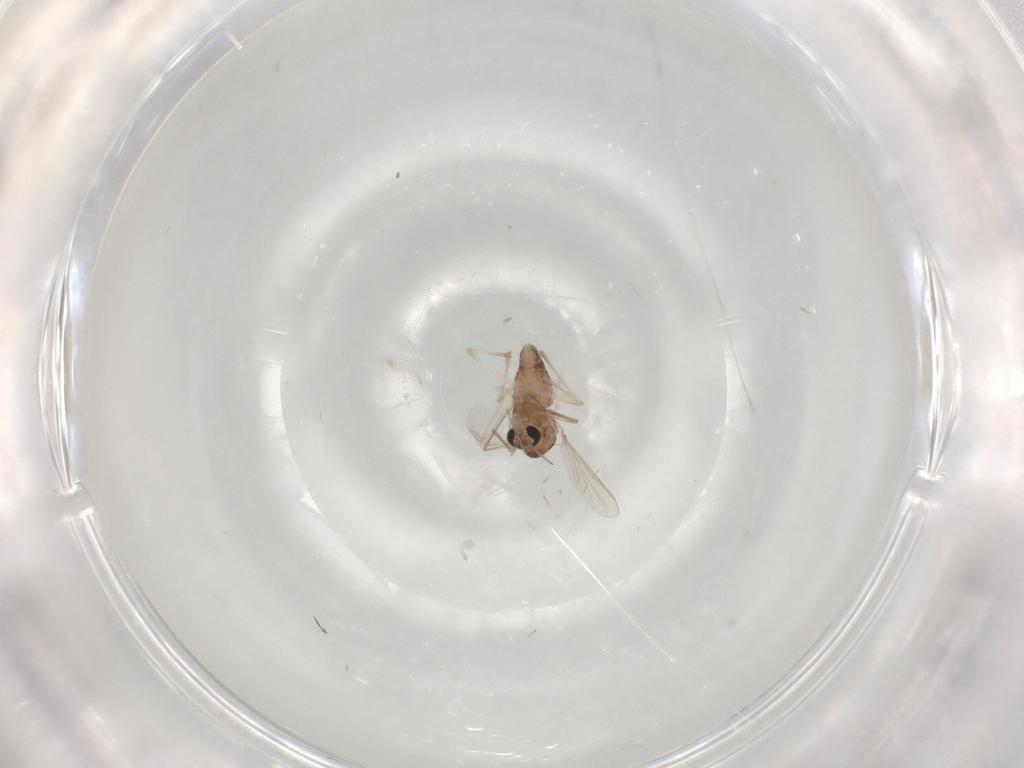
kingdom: Animalia
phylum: Arthropoda
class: Insecta
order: Diptera
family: Chironomidae
